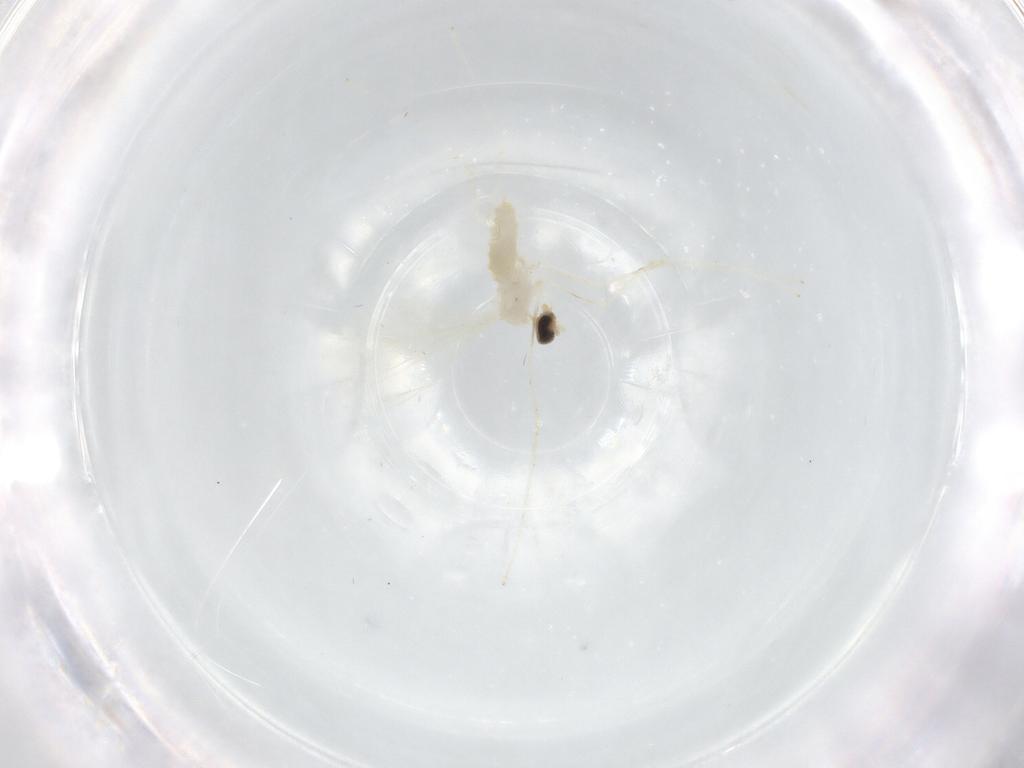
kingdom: Animalia
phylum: Arthropoda
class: Insecta
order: Diptera
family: Cecidomyiidae
